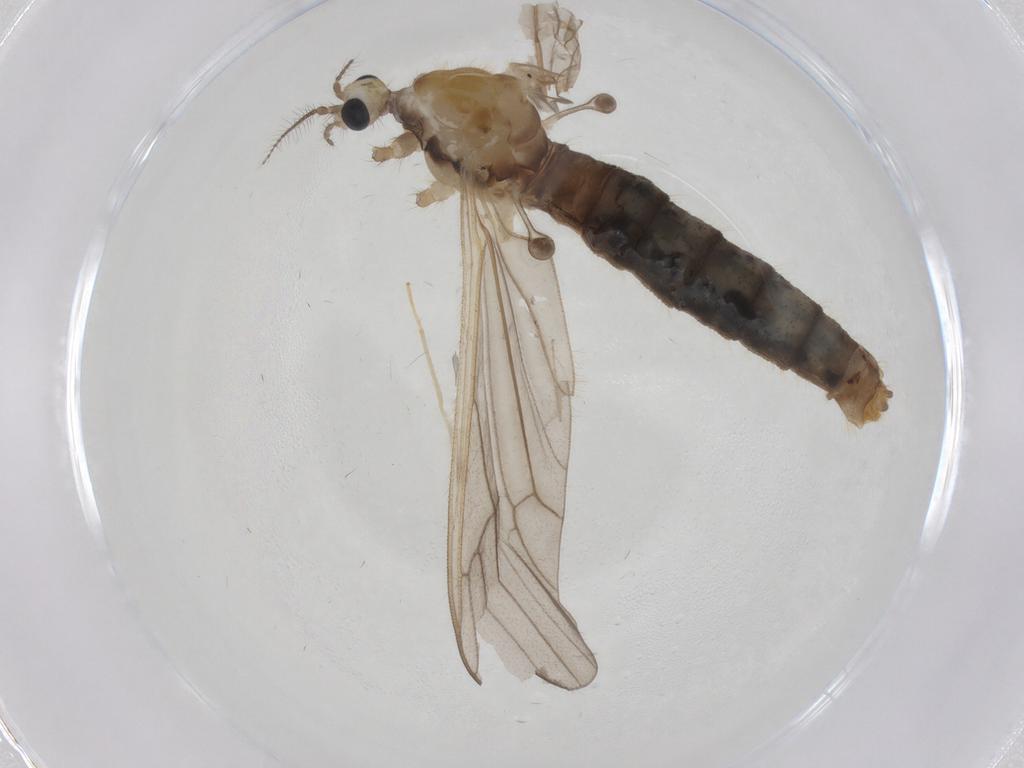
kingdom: Animalia
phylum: Arthropoda
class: Insecta
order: Diptera
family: Limoniidae
